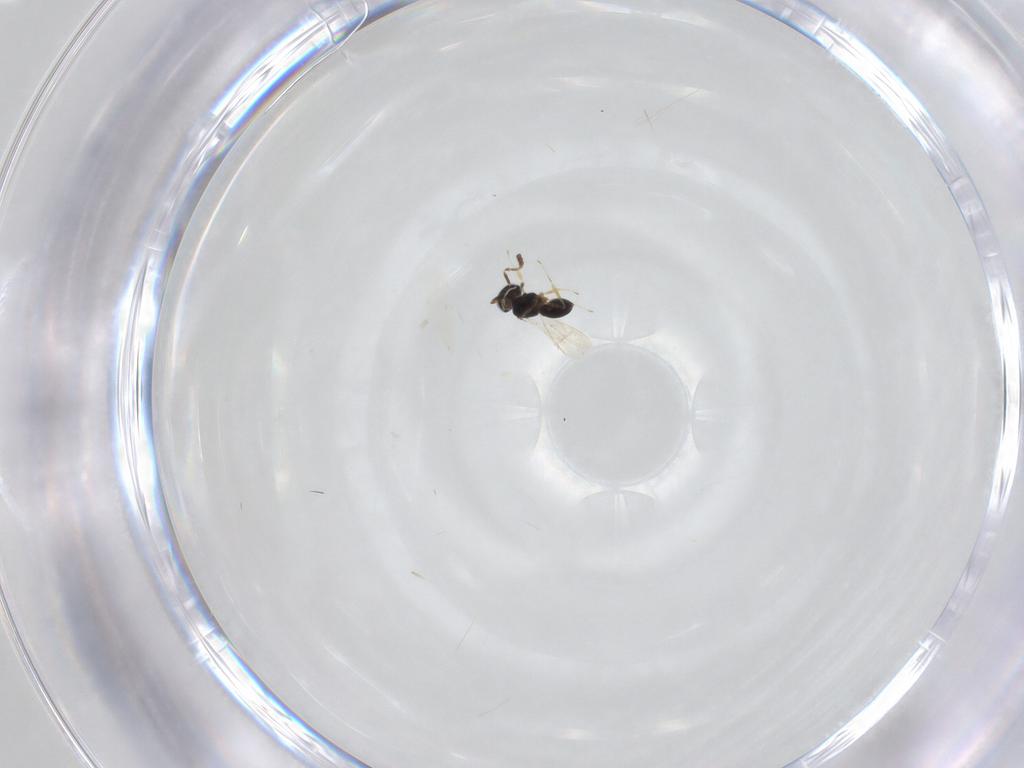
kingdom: Animalia
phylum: Arthropoda
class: Insecta
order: Hymenoptera
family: Scelionidae
